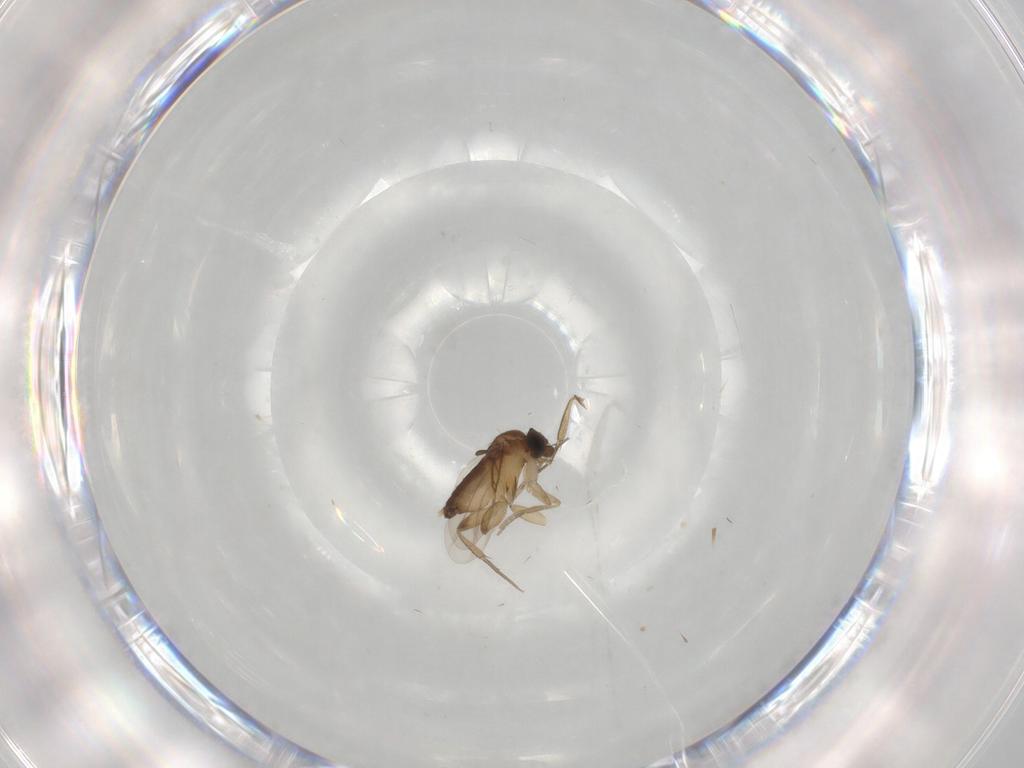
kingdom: Animalia
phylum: Arthropoda
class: Insecta
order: Diptera
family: Phoridae
